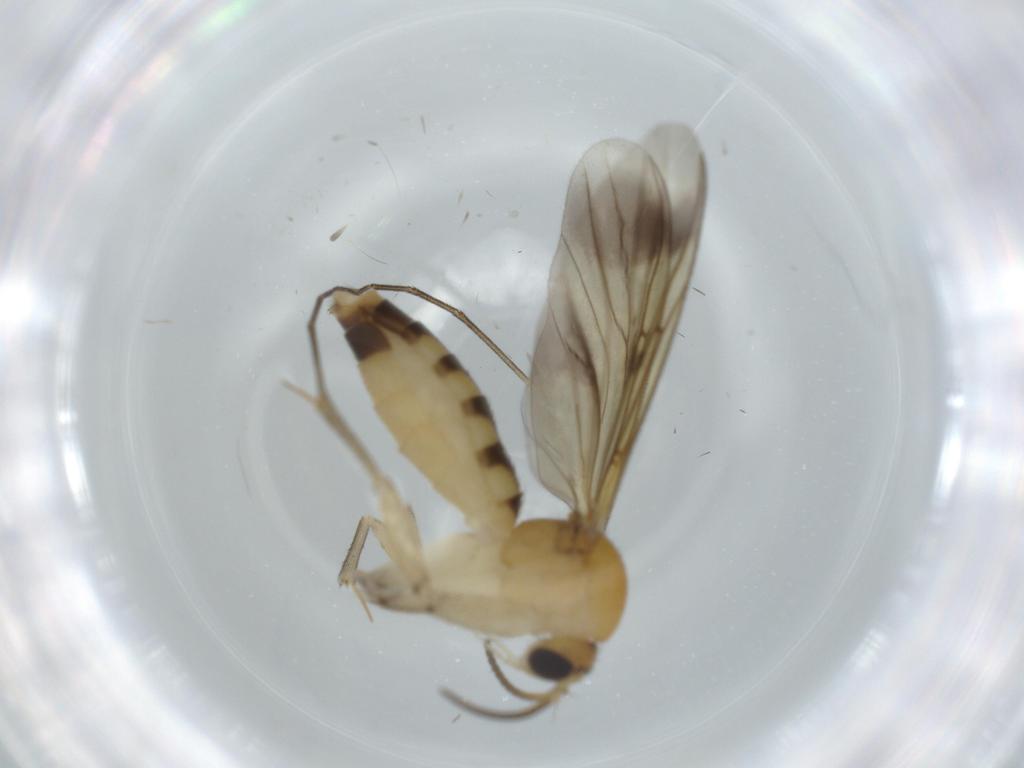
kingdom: Animalia
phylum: Arthropoda
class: Insecta
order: Diptera
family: Mycetophilidae
